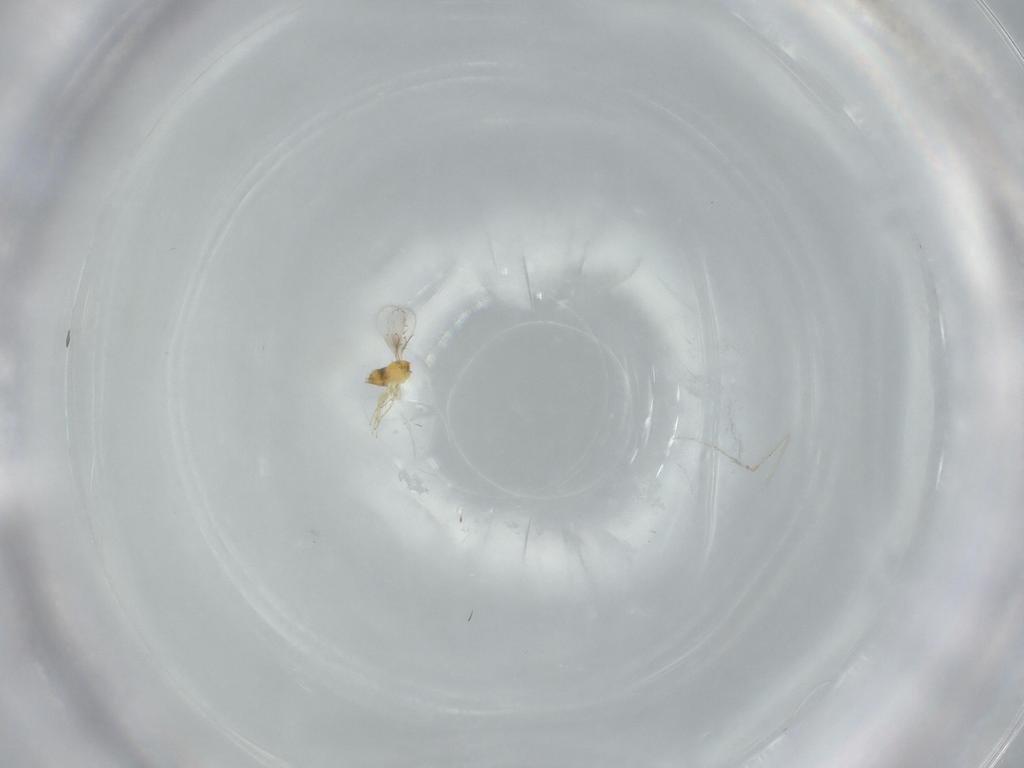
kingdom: Animalia
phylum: Arthropoda
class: Insecta
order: Hymenoptera
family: Trichogrammatidae
